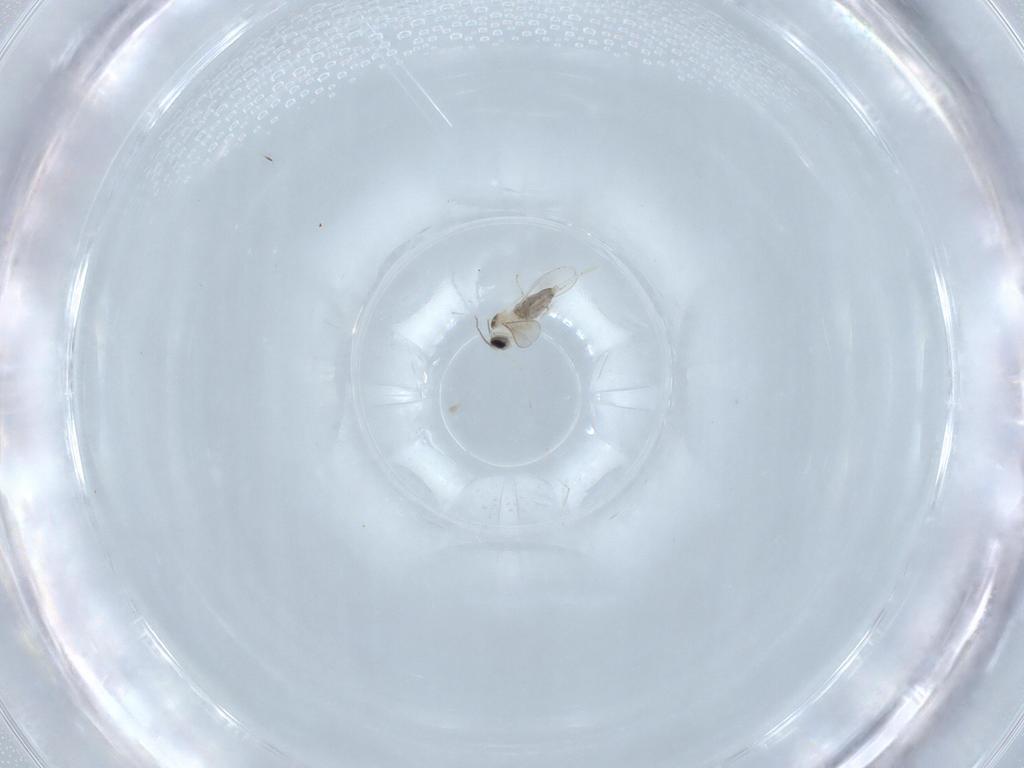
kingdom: Animalia
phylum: Arthropoda
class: Insecta
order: Diptera
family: Cecidomyiidae
